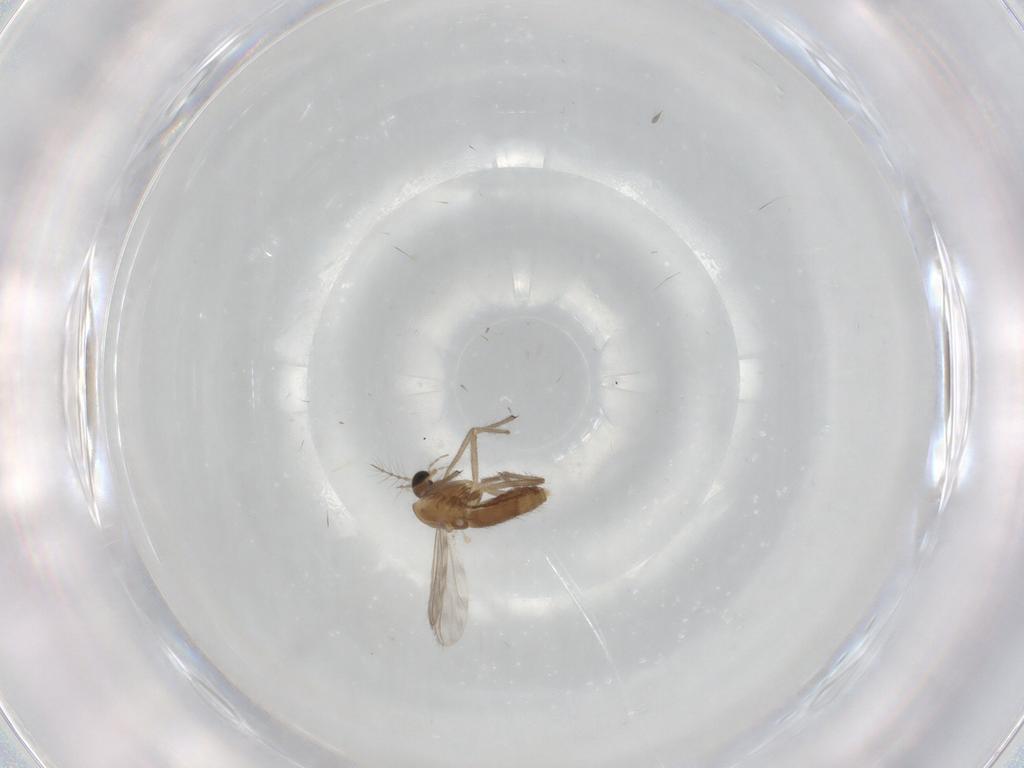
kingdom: Animalia
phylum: Arthropoda
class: Insecta
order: Diptera
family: Chironomidae
